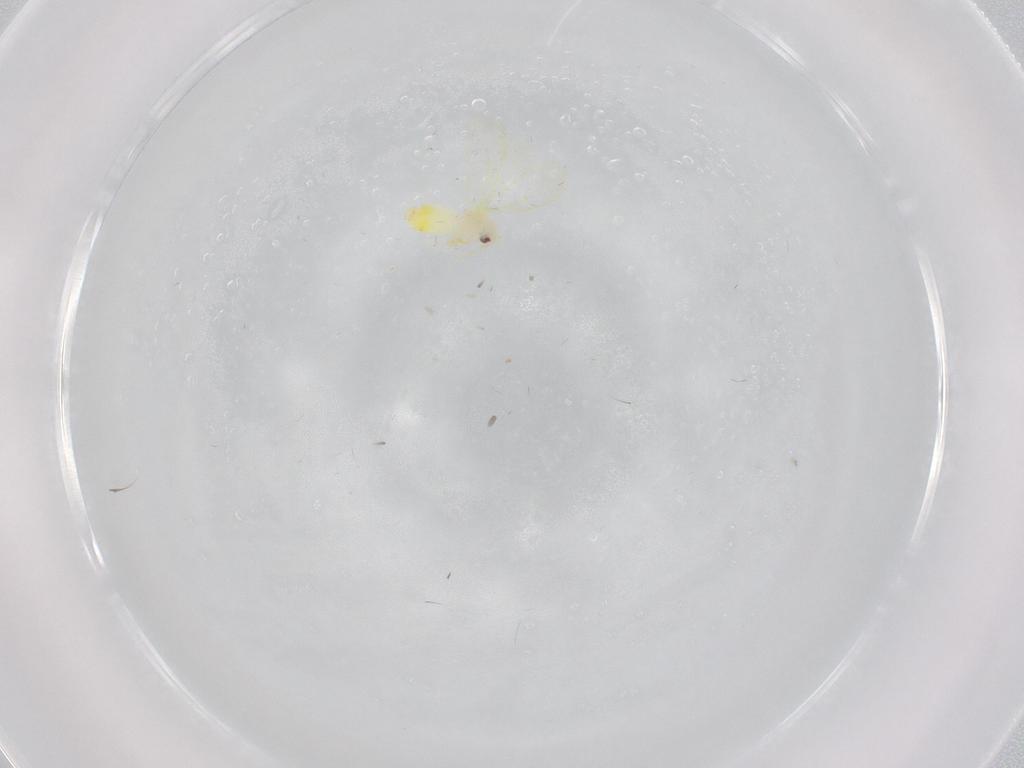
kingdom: Animalia
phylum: Arthropoda
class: Insecta
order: Hemiptera
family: Aleyrodidae
